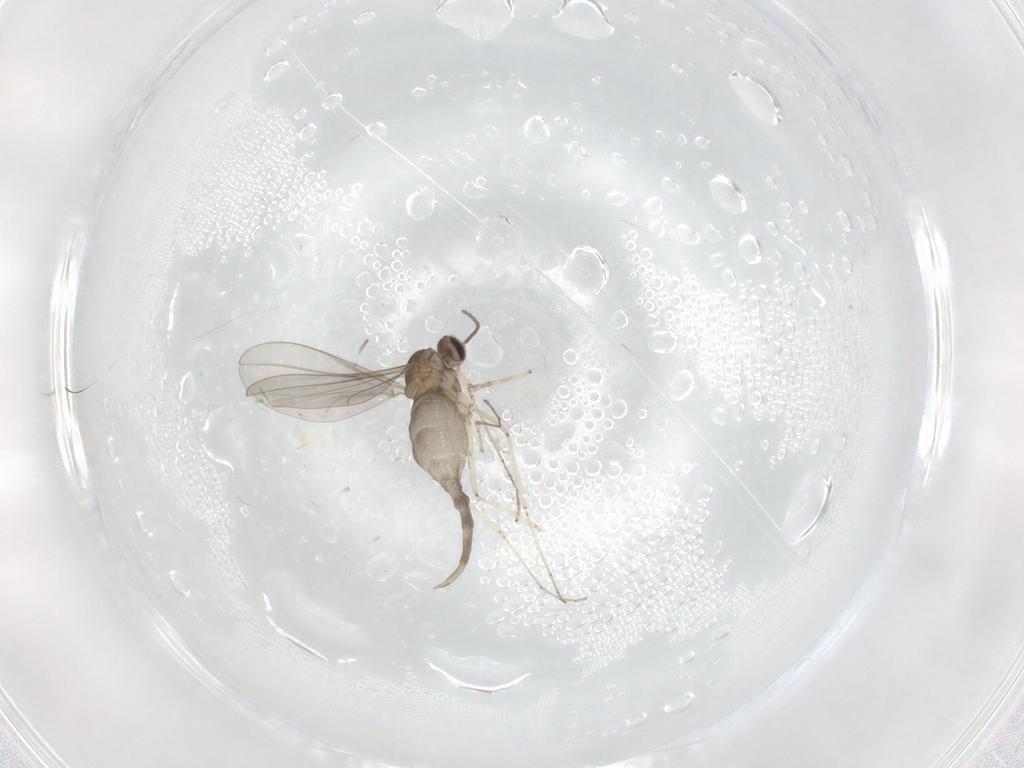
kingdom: Animalia
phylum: Arthropoda
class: Insecta
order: Diptera
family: Cecidomyiidae
